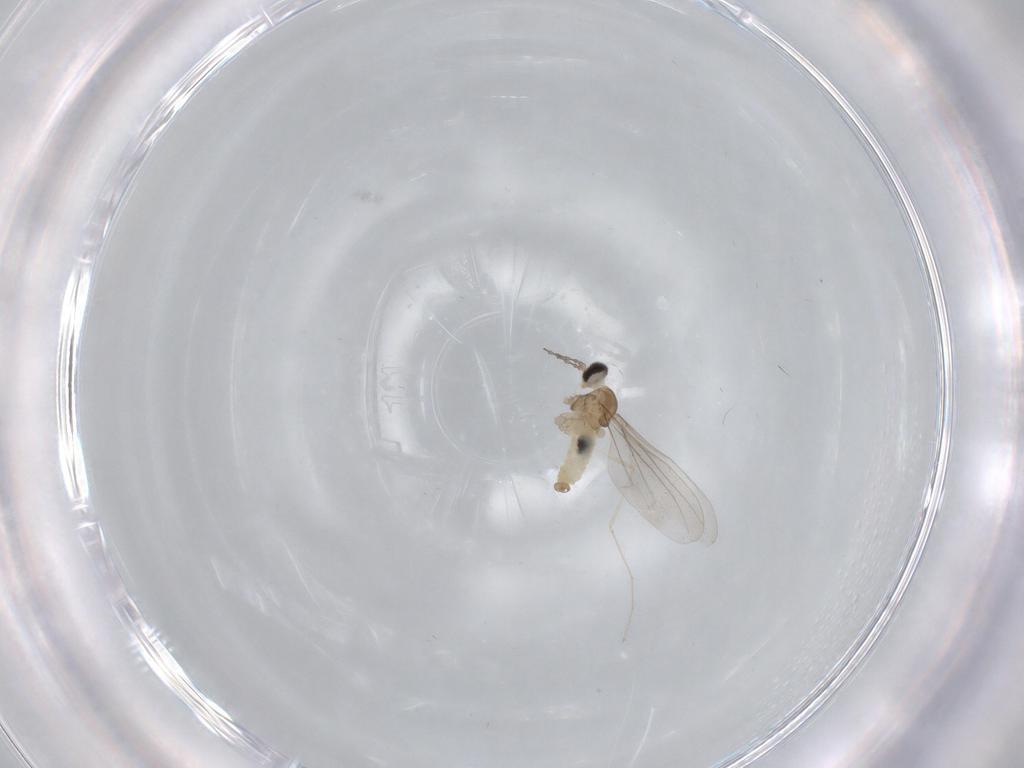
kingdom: Animalia
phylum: Arthropoda
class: Insecta
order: Diptera
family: Cecidomyiidae
